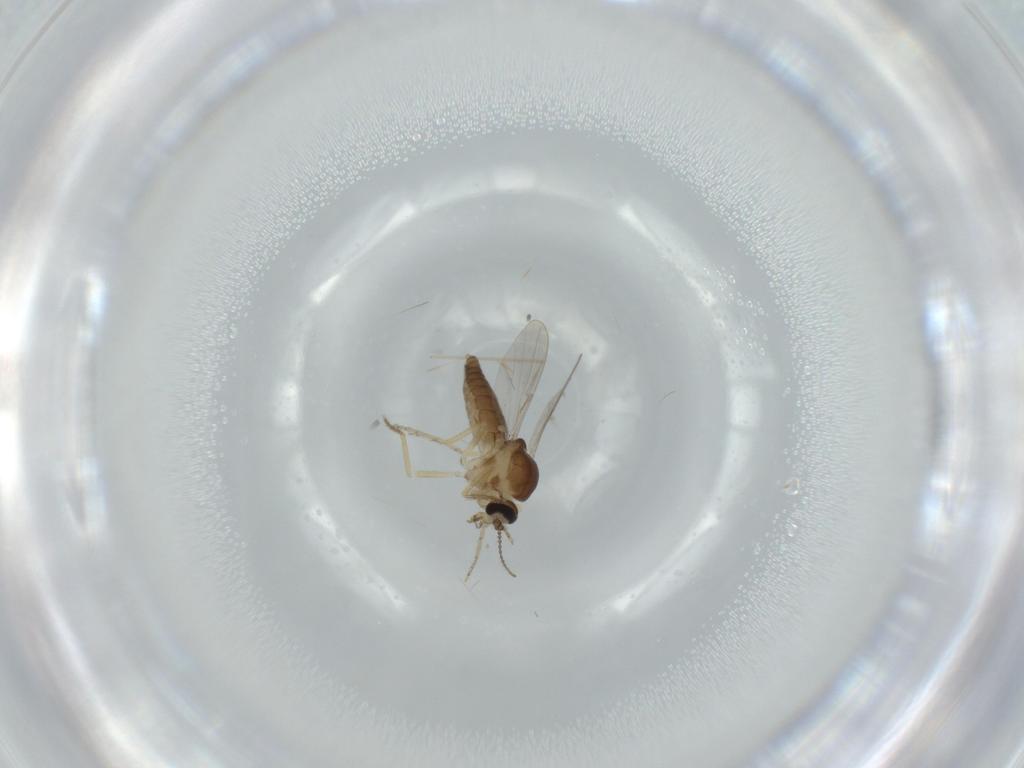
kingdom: Animalia
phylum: Arthropoda
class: Insecta
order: Diptera
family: Ceratopogonidae
